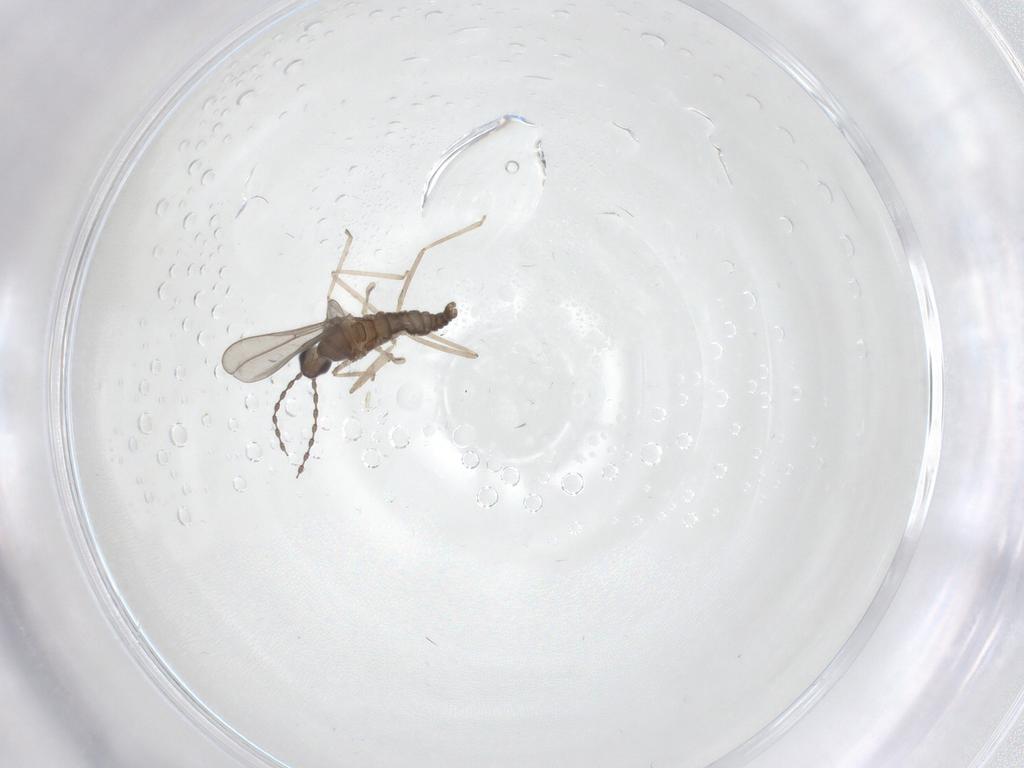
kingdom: Animalia
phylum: Arthropoda
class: Insecta
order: Diptera
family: Cecidomyiidae
